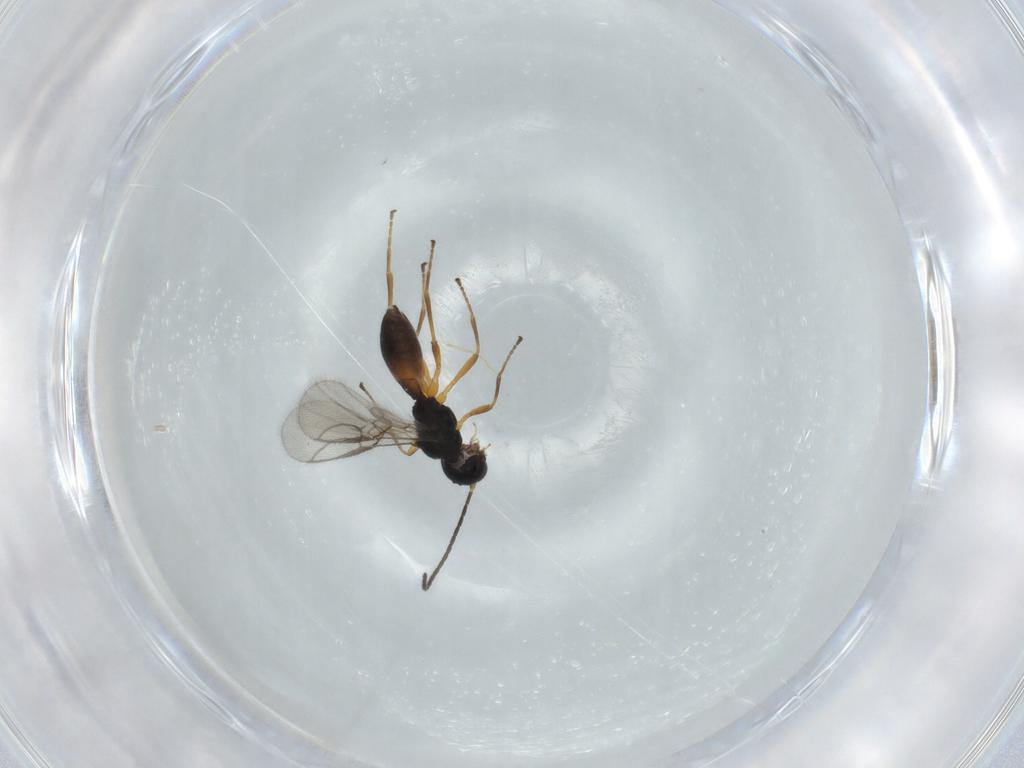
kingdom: Animalia
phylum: Arthropoda
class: Insecta
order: Hymenoptera
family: Braconidae
